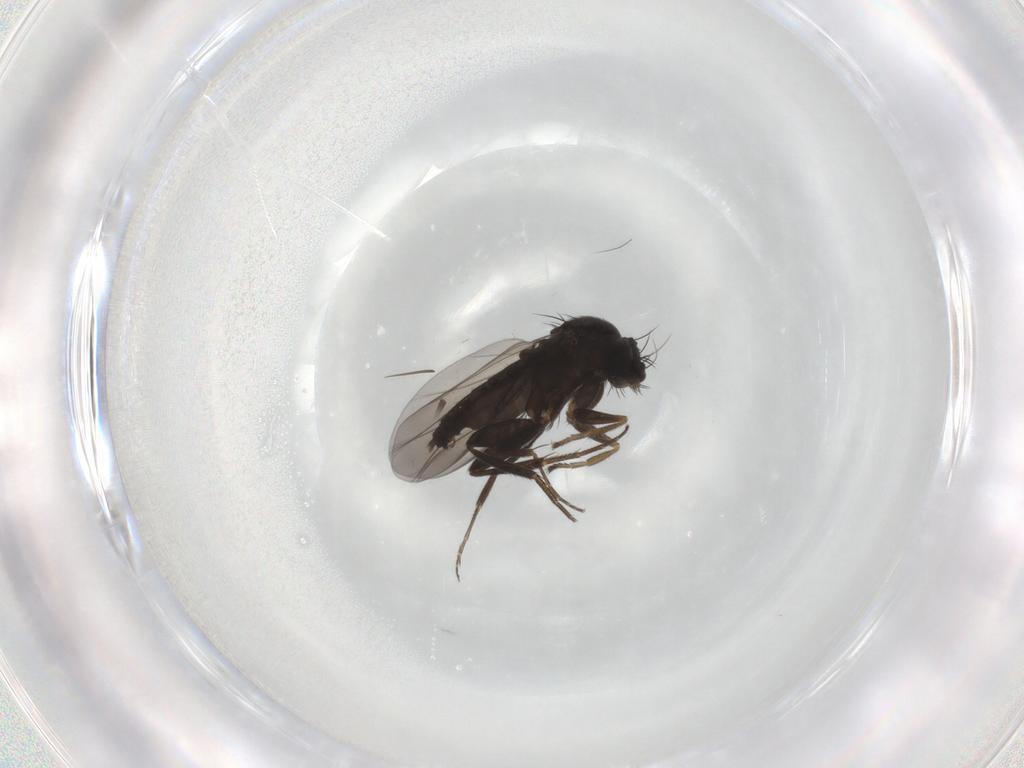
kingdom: Animalia
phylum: Arthropoda
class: Insecta
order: Diptera
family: Phoridae
